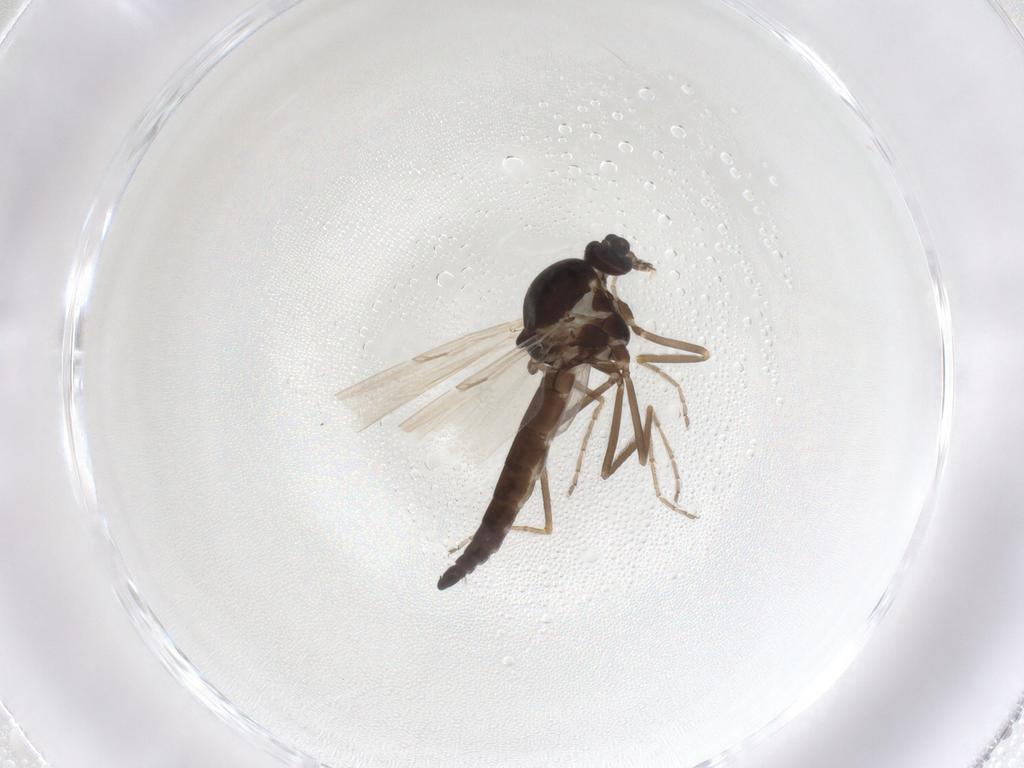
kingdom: Animalia
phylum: Arthropoda
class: Insecta
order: Diptera
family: Ceratopogonidae
